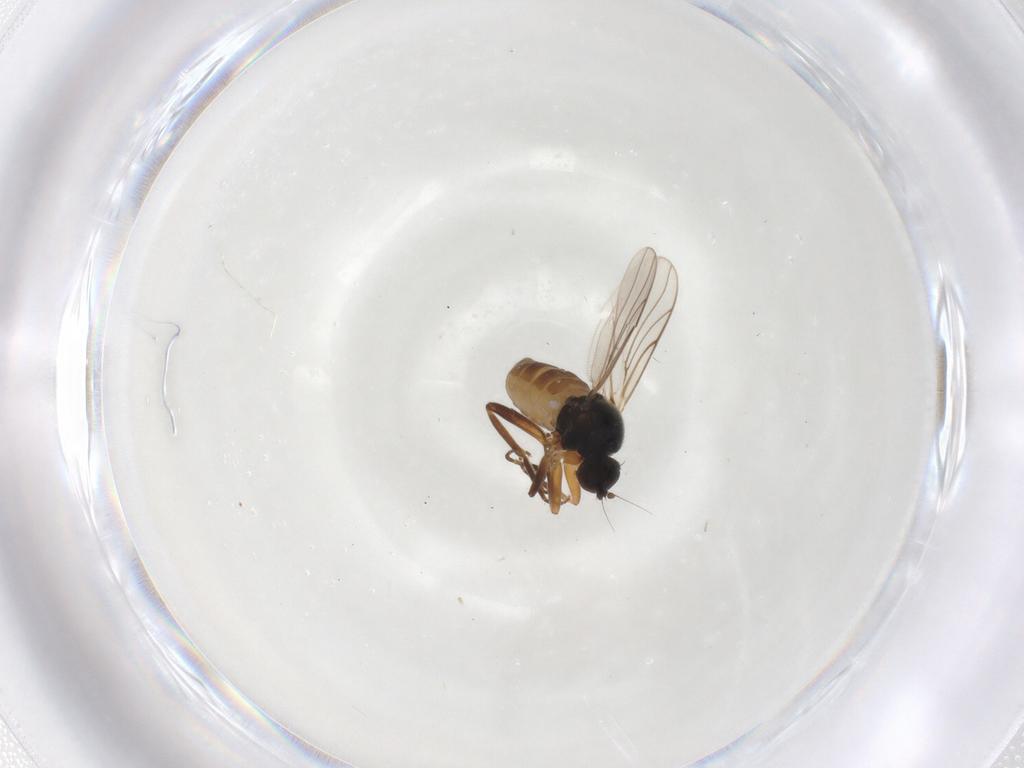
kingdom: Animalia
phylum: Arthropoda
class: Insecta
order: Diptera
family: Hybotidae
